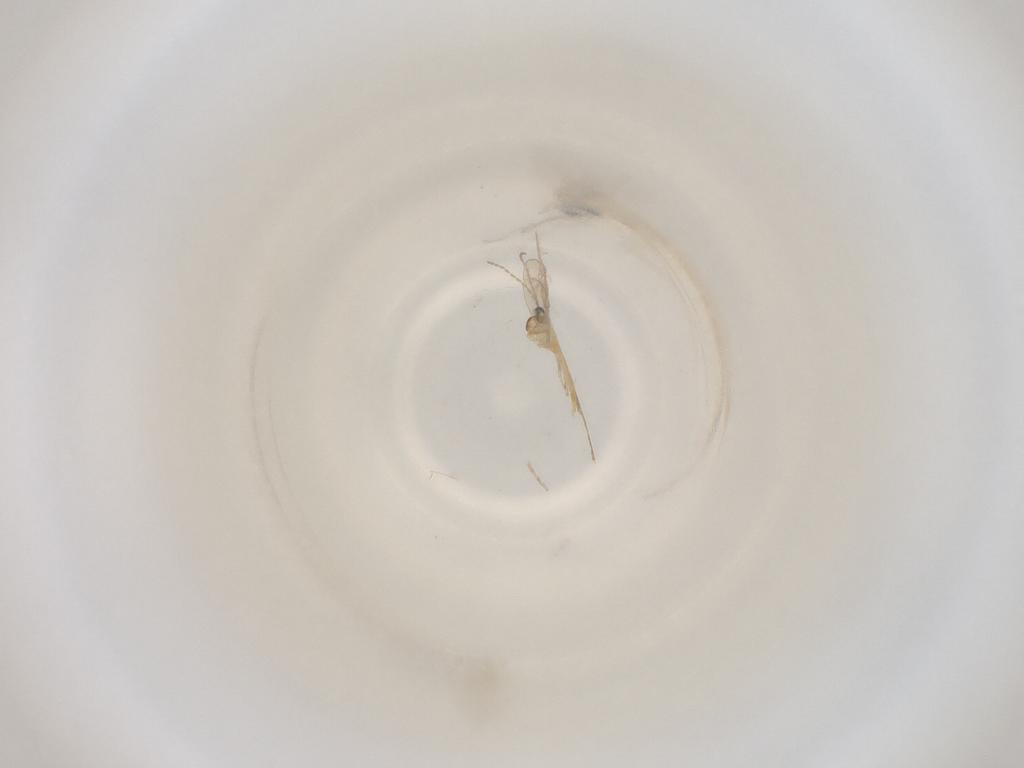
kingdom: Animalia
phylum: Arthropoda
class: Insecta
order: Diptera
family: Cecidomyiidae
